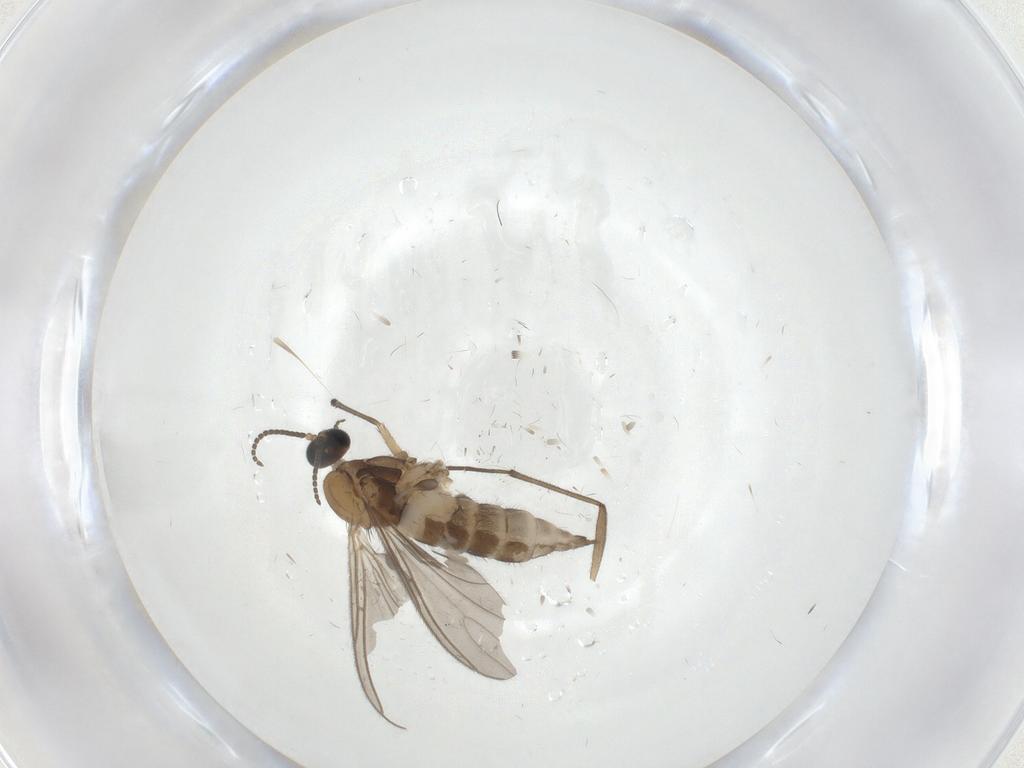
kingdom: Animalia
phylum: Arthropoda
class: Insecta
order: Diptera
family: Sciaridae
